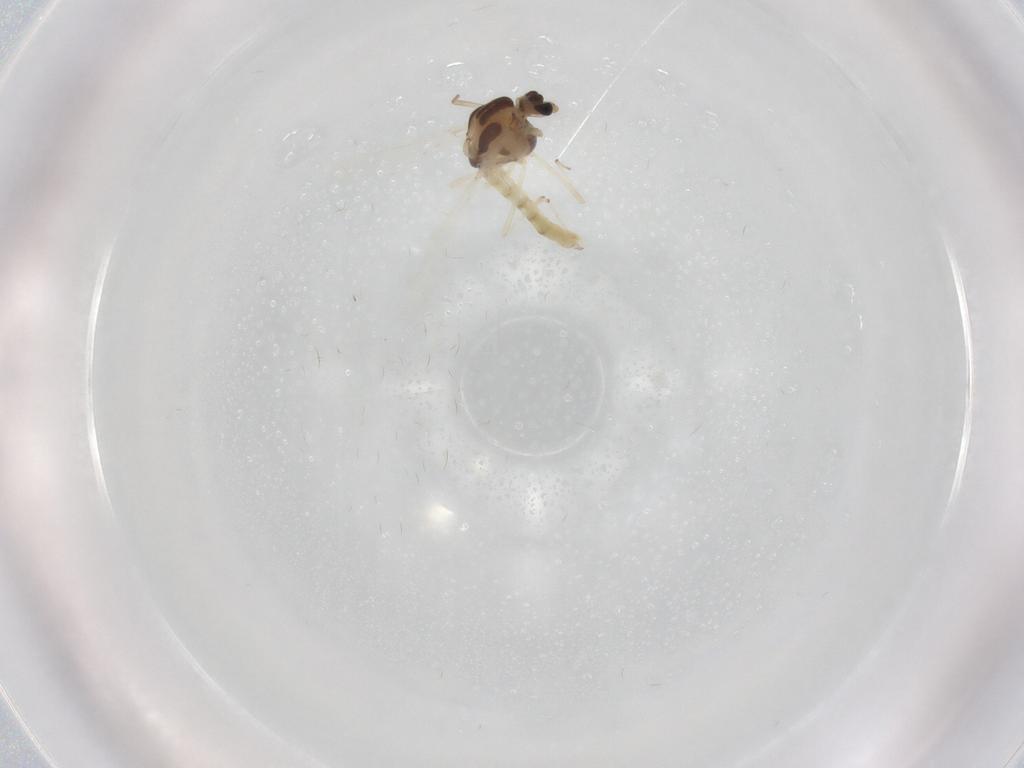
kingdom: Animalia
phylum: Arthropoda
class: Insecta
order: Diptera
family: Chironomidae
